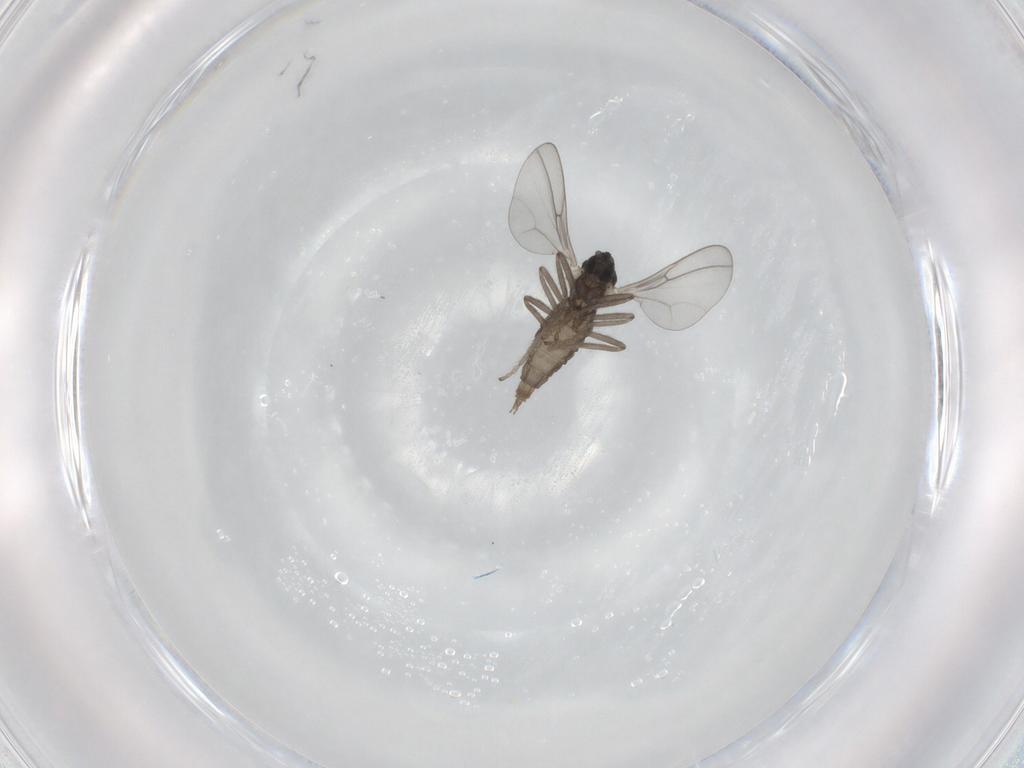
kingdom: Animalia
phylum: Arthropoda
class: Insecta
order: Diptera
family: Cecidomyiidae
